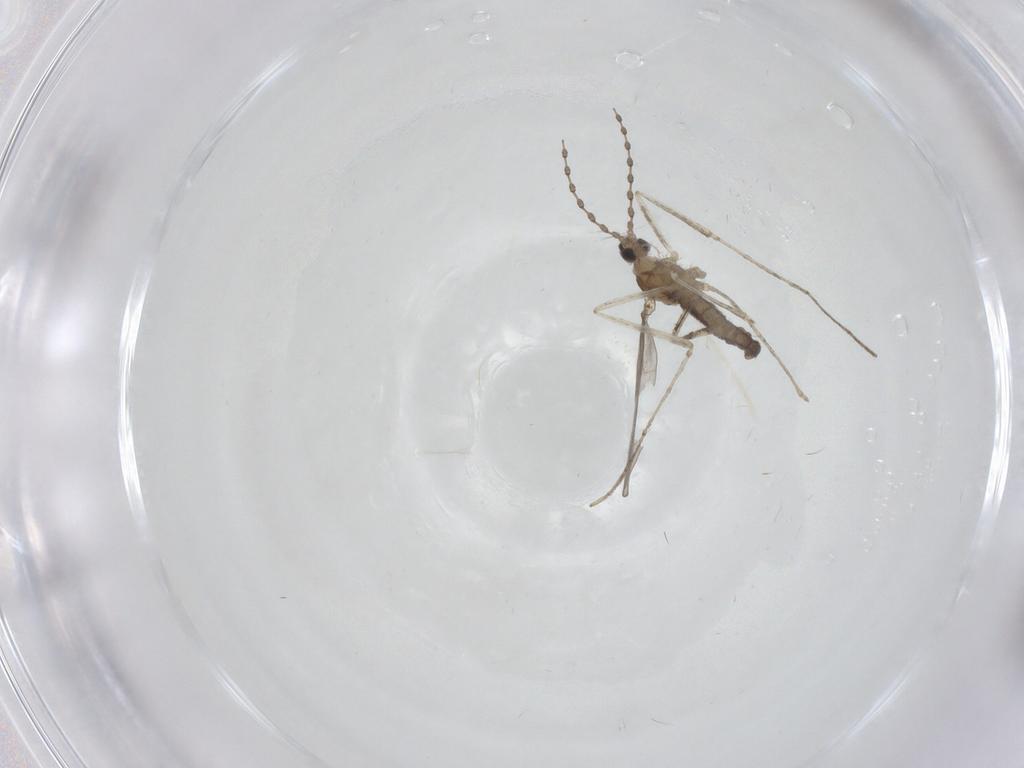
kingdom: Animalia
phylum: Arthropoda
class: Insecta
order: Diptera
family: Cecidomyiidae
